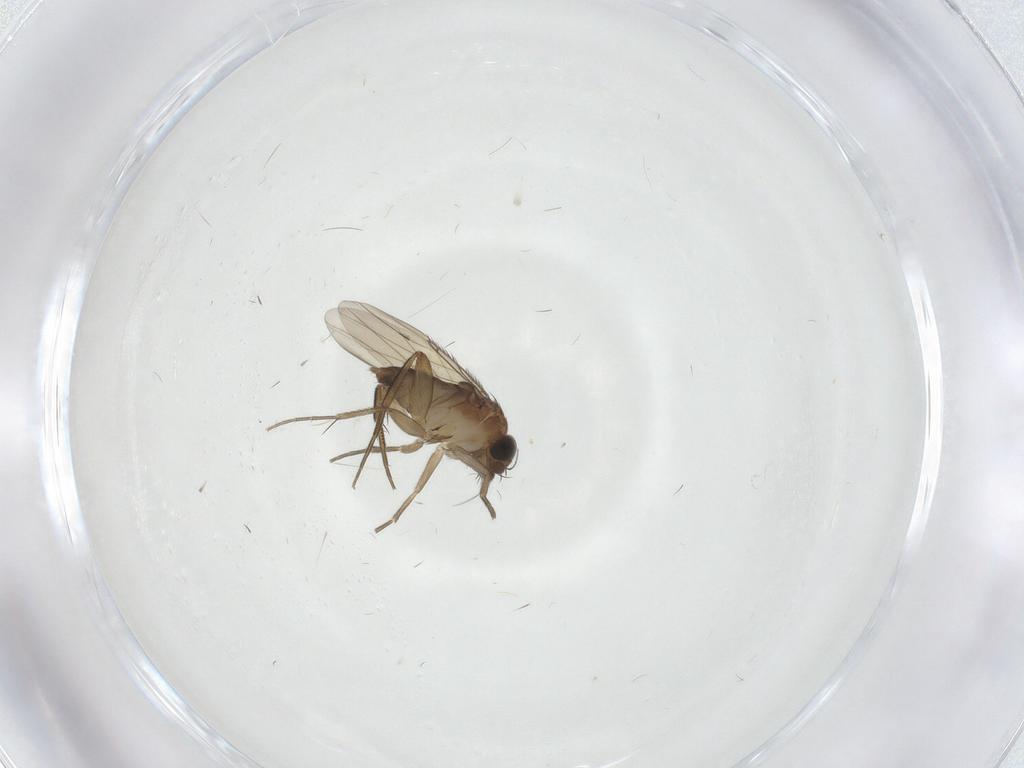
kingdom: Animalia
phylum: Arthropoda
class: Insecta
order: Diptera
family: Phoridae
